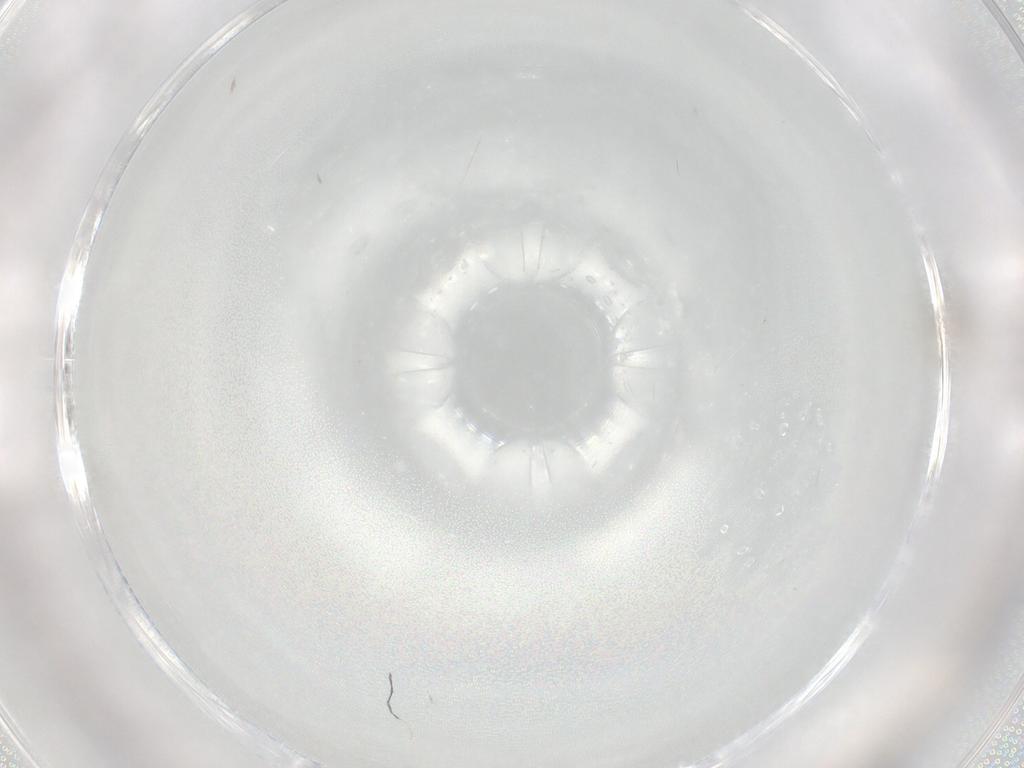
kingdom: Animalia
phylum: Arthropoda
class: Insecta
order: Diptera
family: Limoniidae
